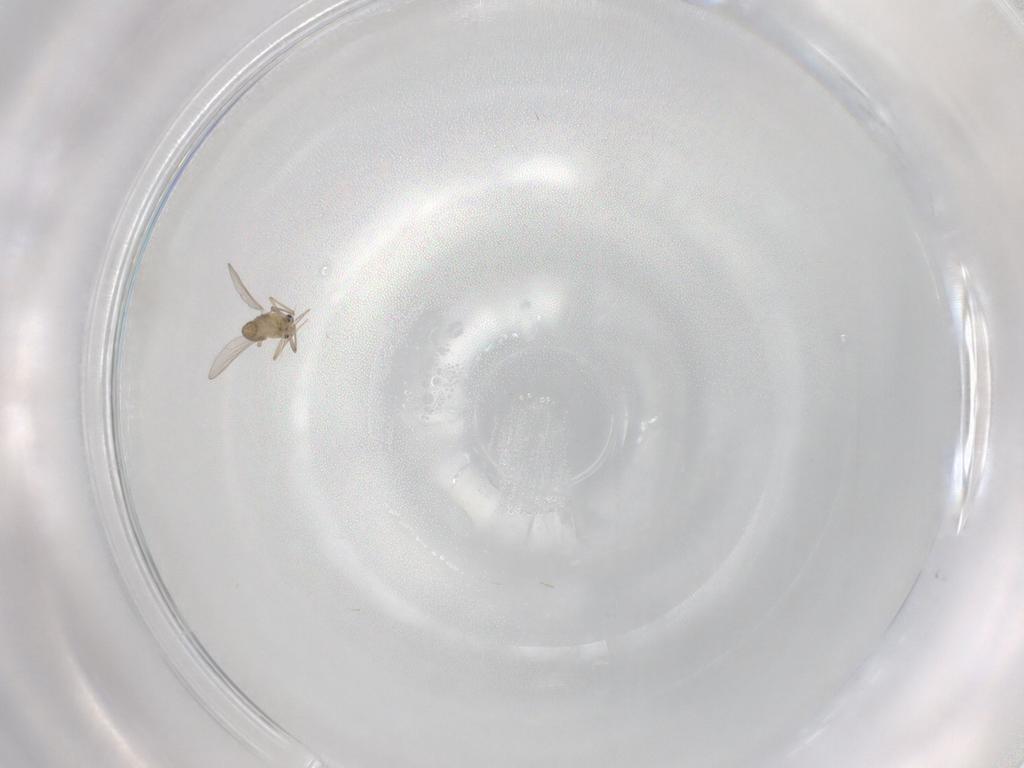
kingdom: Animalia
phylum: Arthropoda
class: Insecta
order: Diptera
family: Chironomidae
